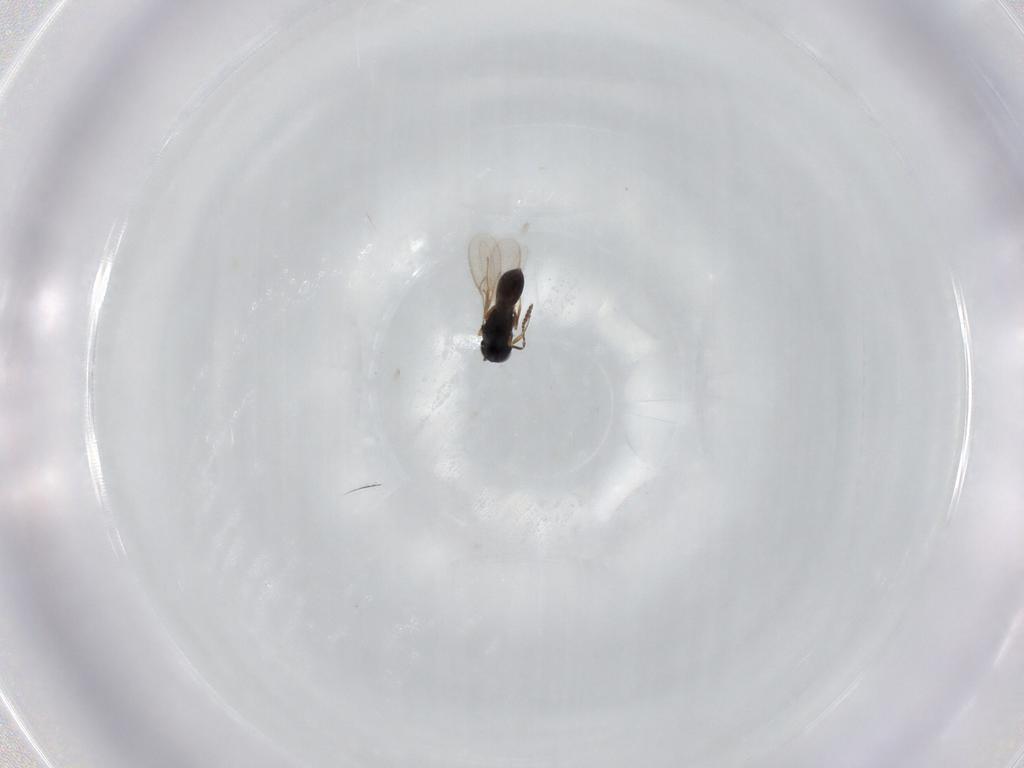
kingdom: Animalia
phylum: Arthropoda
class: Insecta
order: Hymenoptera
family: Scelionidae
